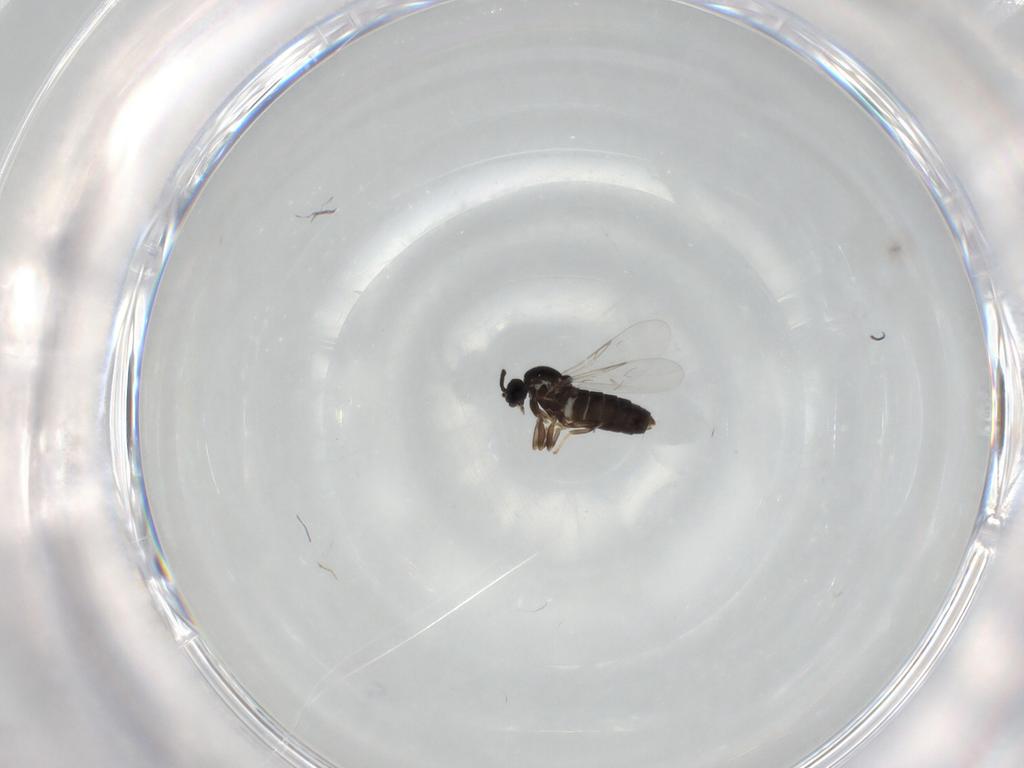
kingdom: Animalia
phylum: Arthropoda
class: Insecta
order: Diptera
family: Scatopsidae
